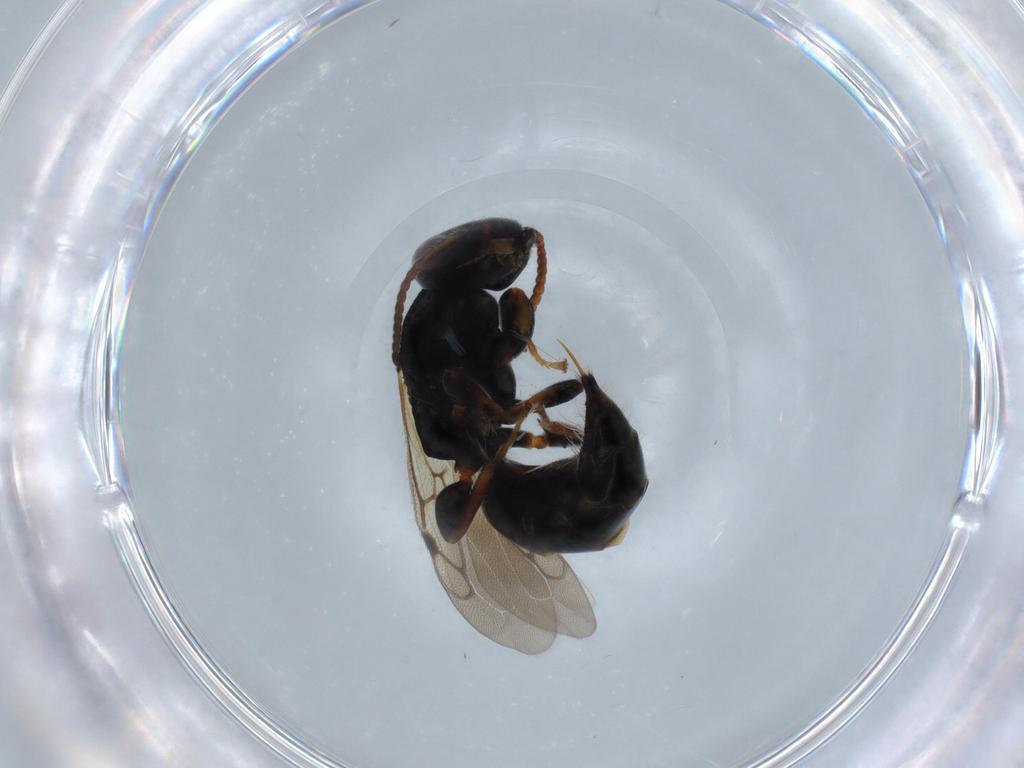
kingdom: Animalia
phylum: Arthropoda
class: Insecta
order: Hymenoptera
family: Bethylidae
